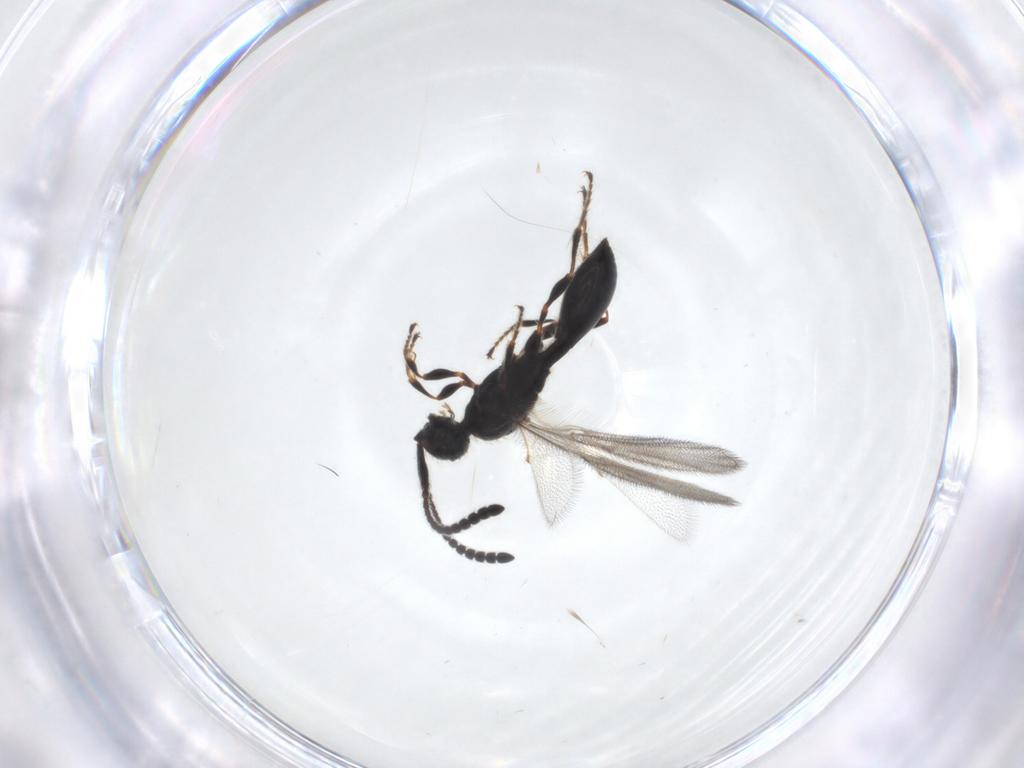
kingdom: Animalia
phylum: Arthropoda
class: Insecta
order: Hymenoptera
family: Diapriidae
